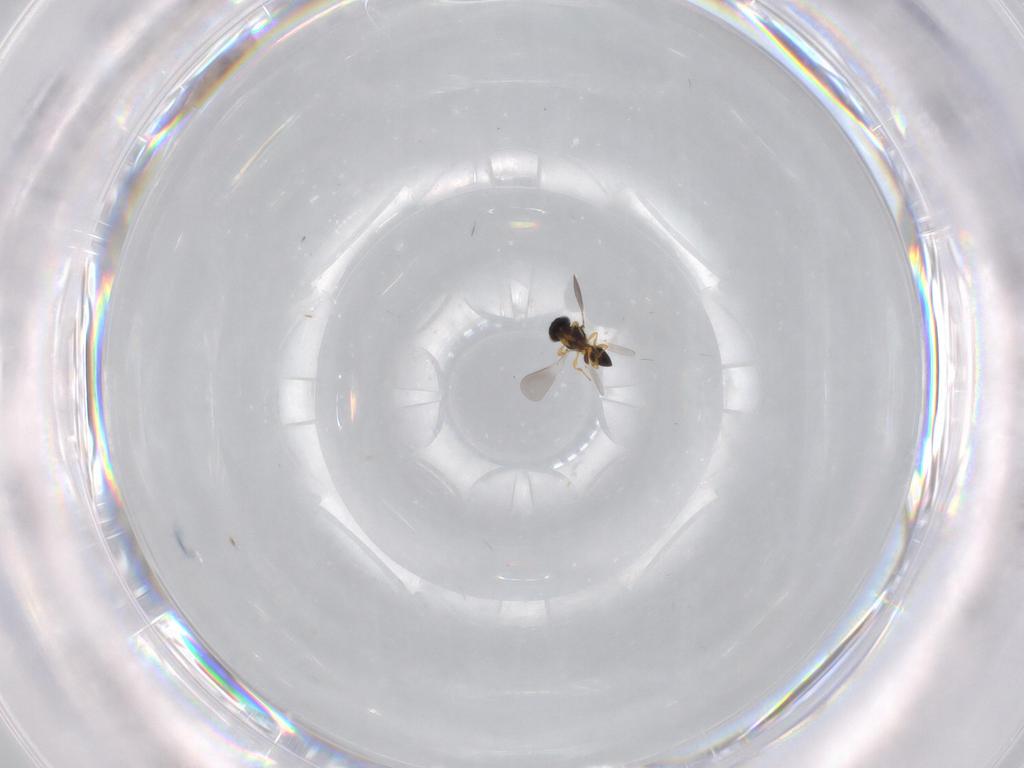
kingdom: Animalia
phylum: Arthropoda
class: Insecta
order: Hymenoptera
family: Platygastridae
